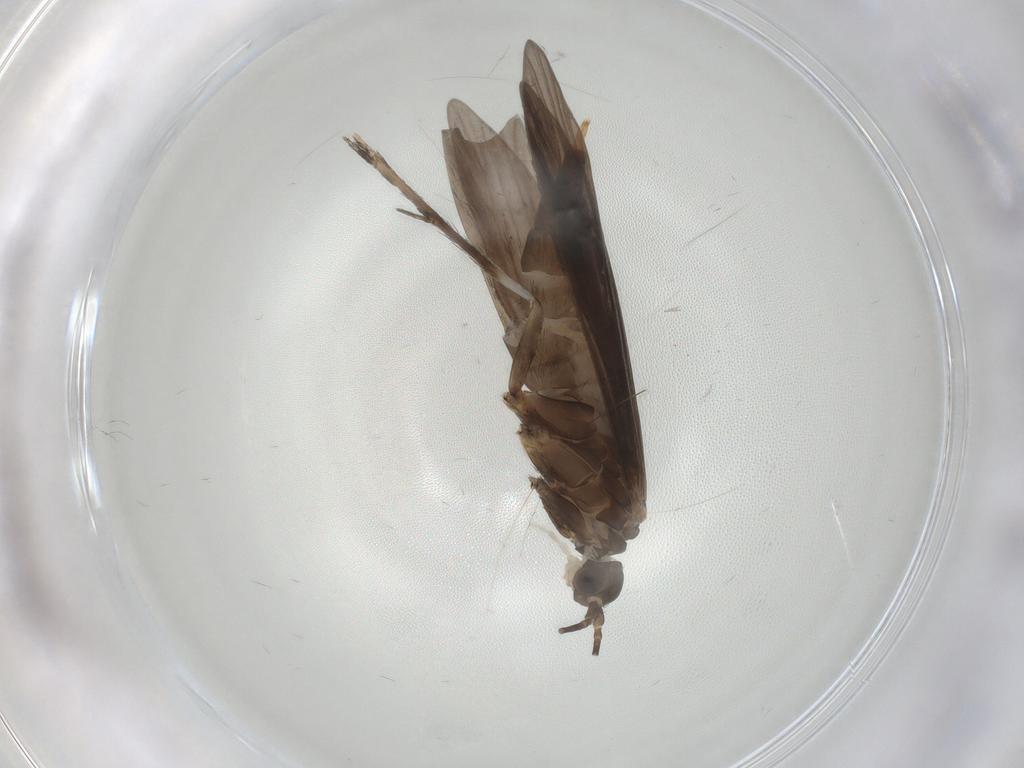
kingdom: Animalia
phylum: Arthropoda
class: Insecta
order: Trichoptera
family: Xiphocentronidae
